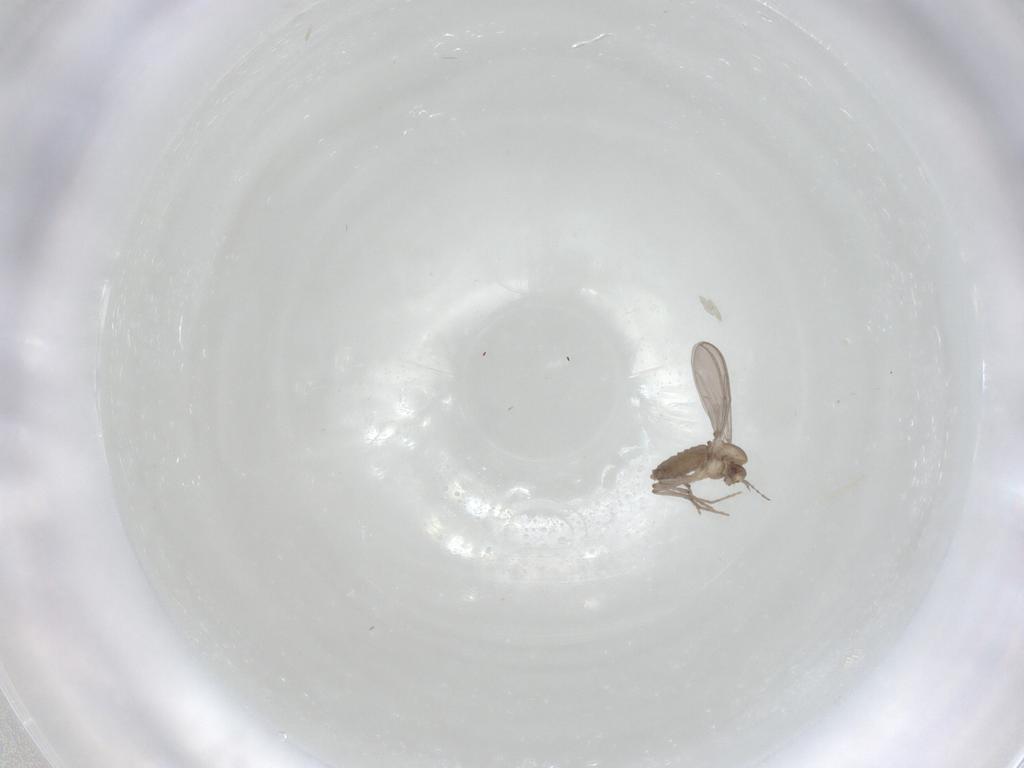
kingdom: Animalia
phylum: Arthropoda
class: Insecta
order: Diptera
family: Chironomidae
